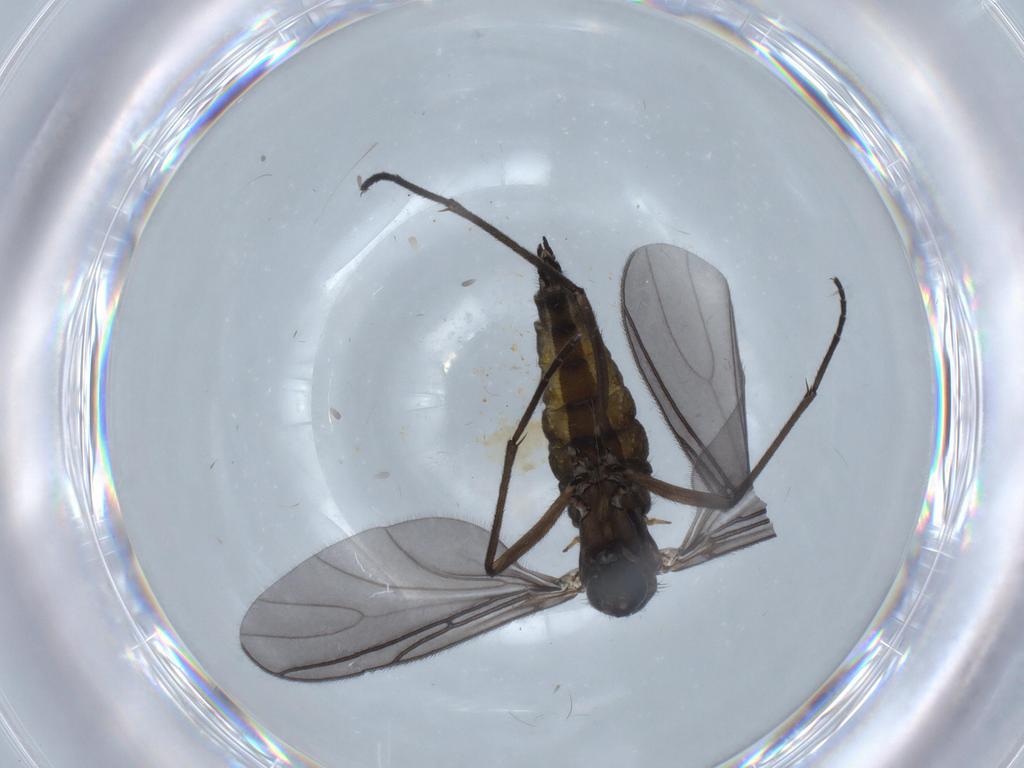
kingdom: Animalia
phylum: Arthropoda
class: Insecta
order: Diptera
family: Sciaridae
